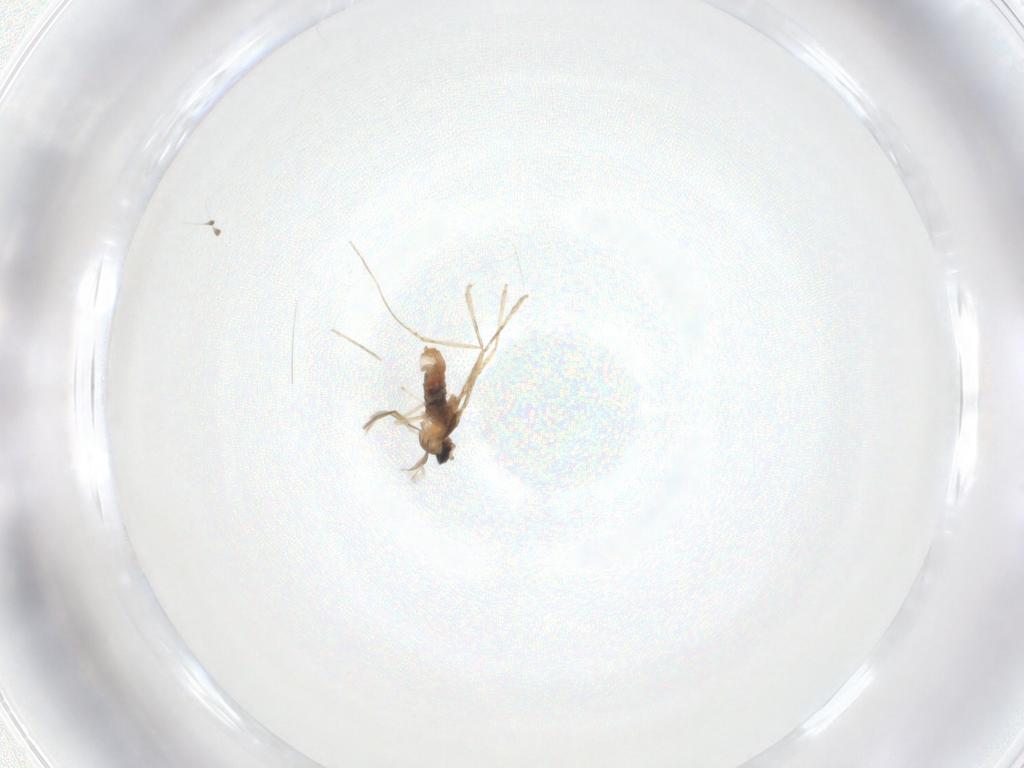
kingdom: Animalia
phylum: Arthropoda
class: Insecta
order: Diptera
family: Cecidomyiidae
